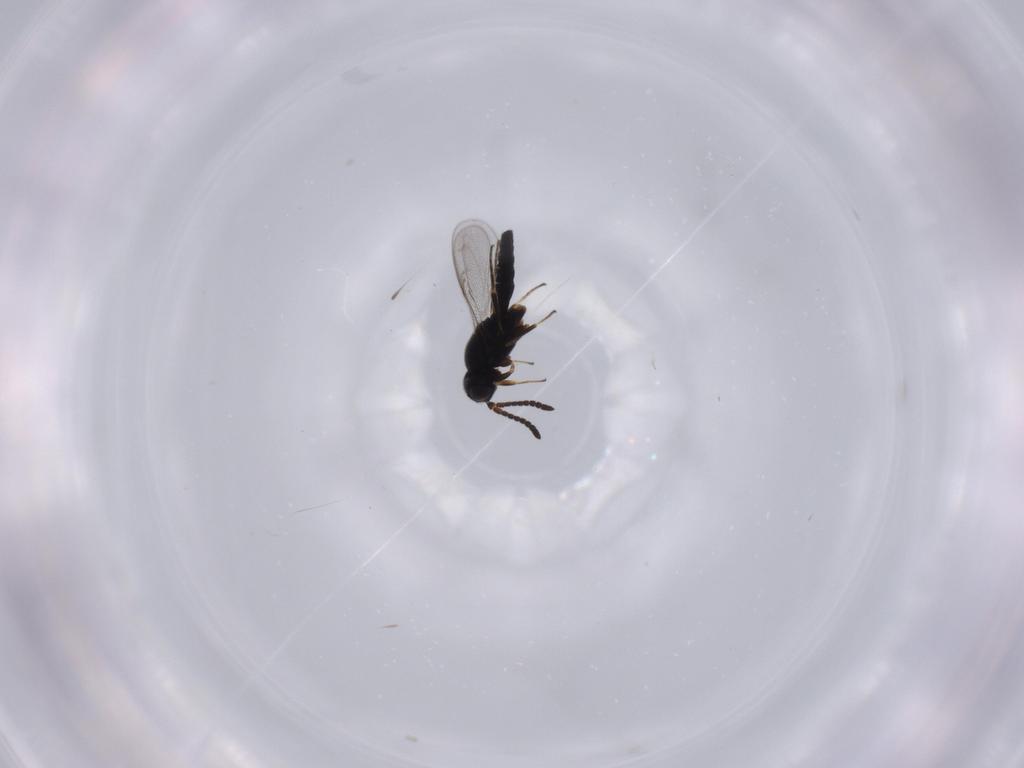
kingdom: Animalia
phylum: Arthropoda
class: Insecta
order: Hymenoptera
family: Scelionidae
